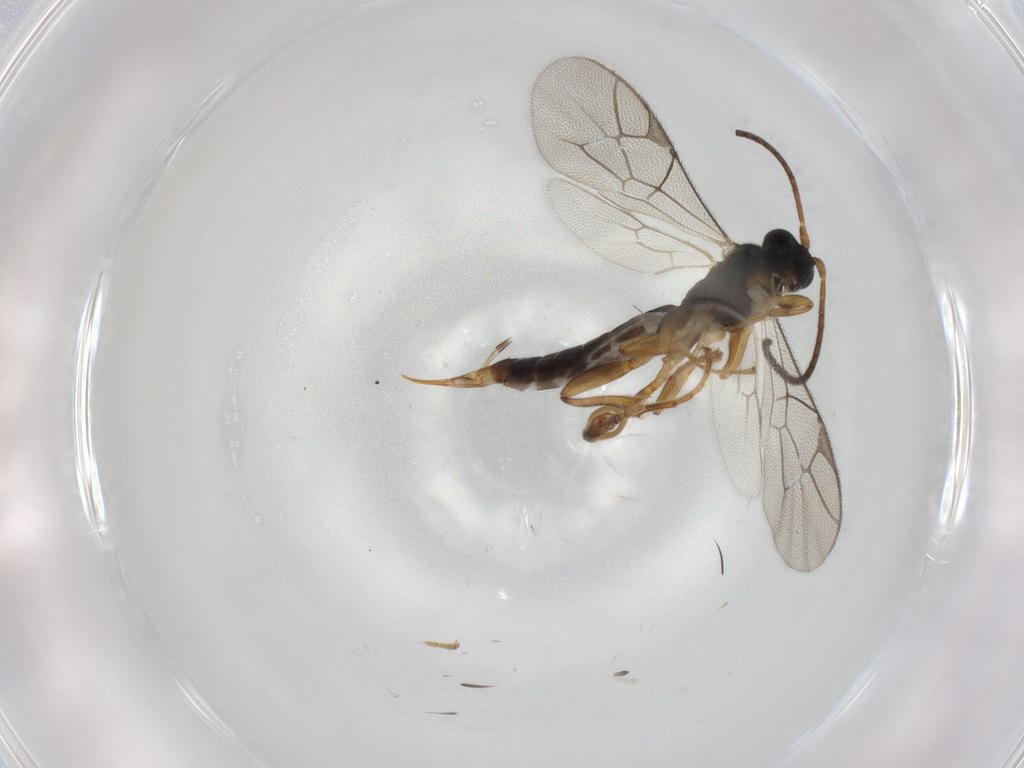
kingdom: Animalia
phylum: Arthropoda
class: Insecta
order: Hymenoptera
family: Ichneumonidae
